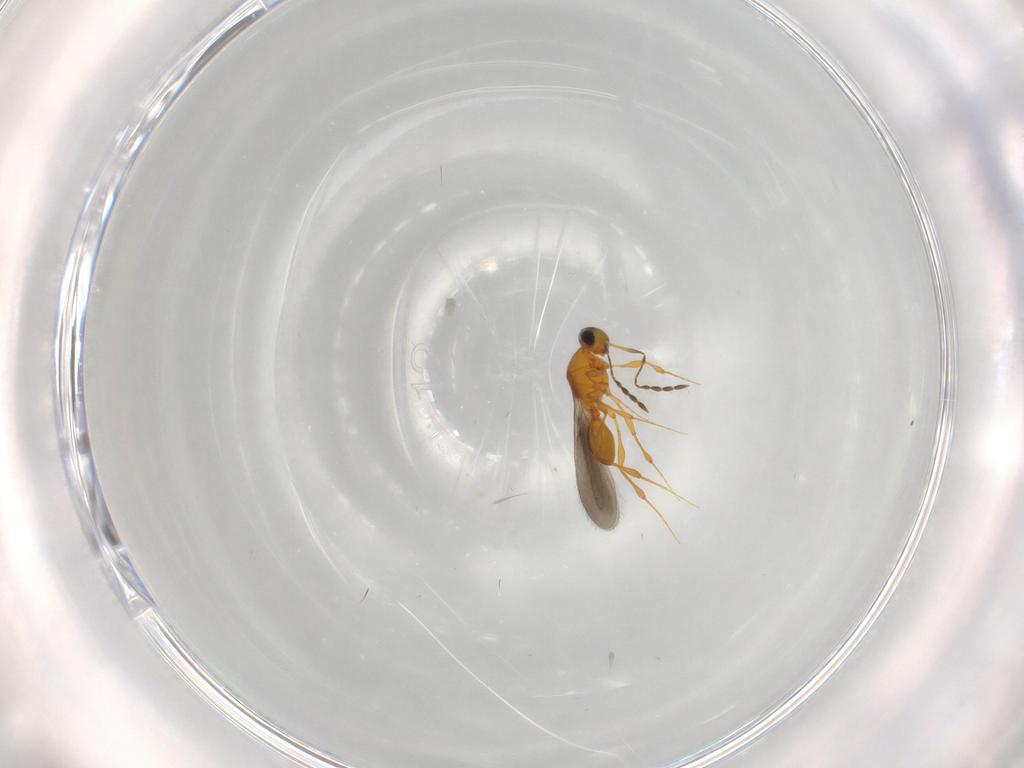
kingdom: Animalia
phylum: Arthropoda
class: Insecta
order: Hymenoptera
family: Platygastridae
